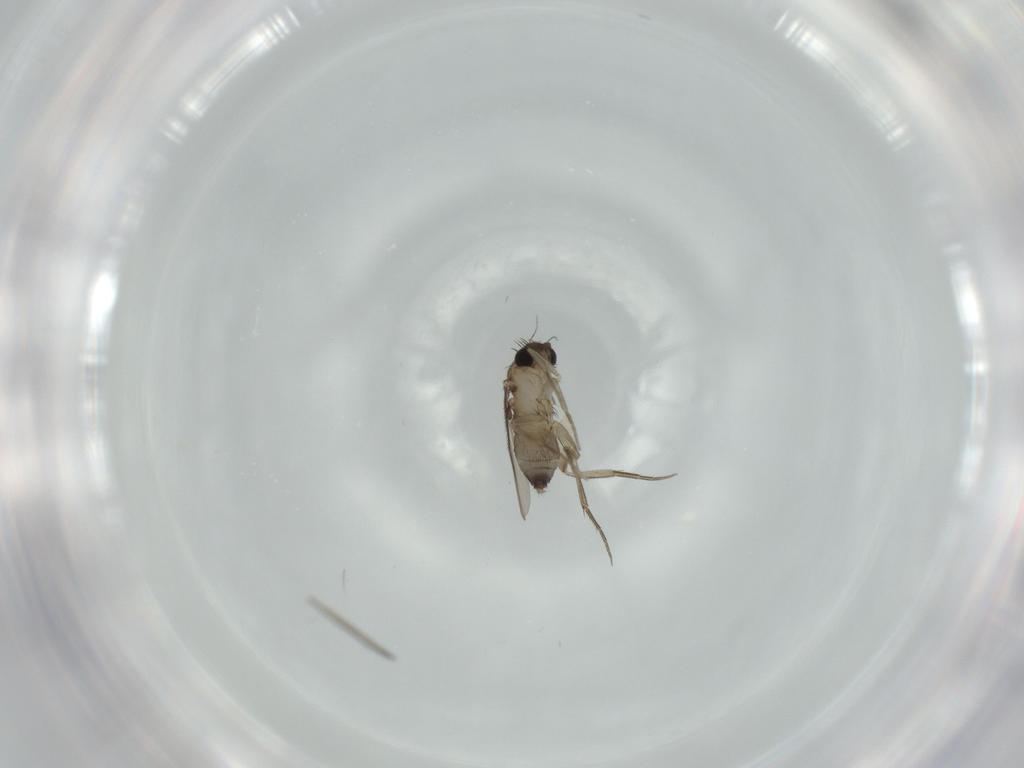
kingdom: Animalia
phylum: Arthropoda
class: Insecta
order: Diptera
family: Phoridae
